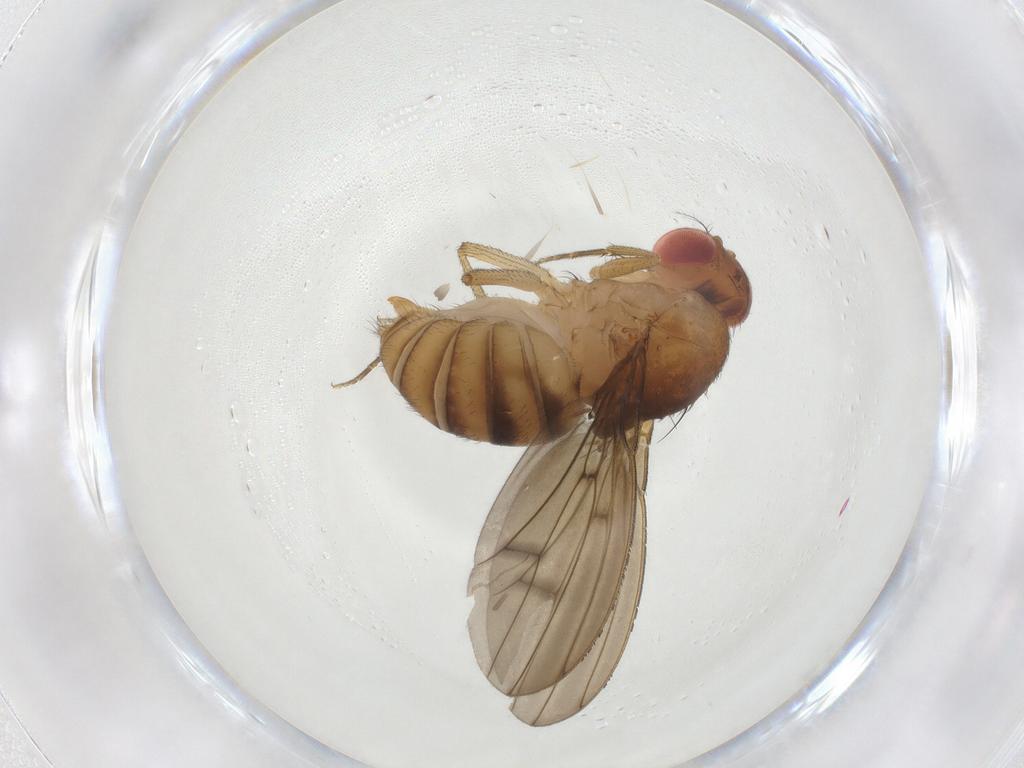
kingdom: Animalia
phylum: Arthropoda
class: Insecta
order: Diptera
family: Drosophilidae
